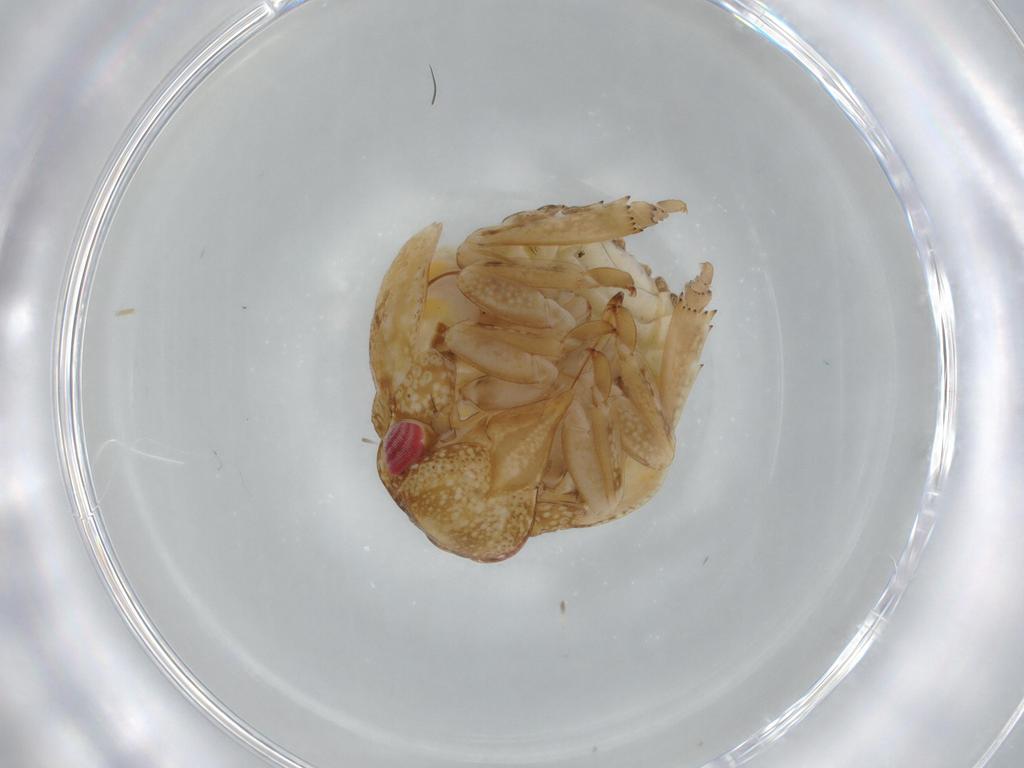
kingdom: Animalia
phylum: Arthropoda
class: Insecta
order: Hemiptera
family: Acanaloniidae
